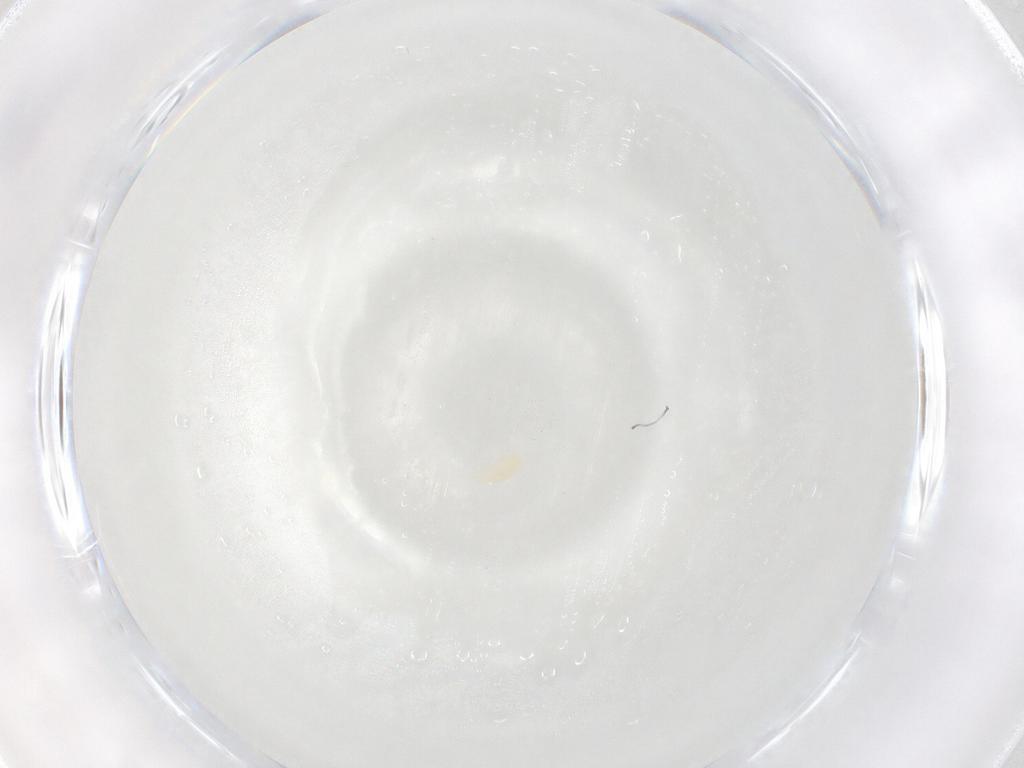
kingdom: Animalia
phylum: Arthropoda
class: Arachnida
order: Trombidiformes
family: Eupodidae
